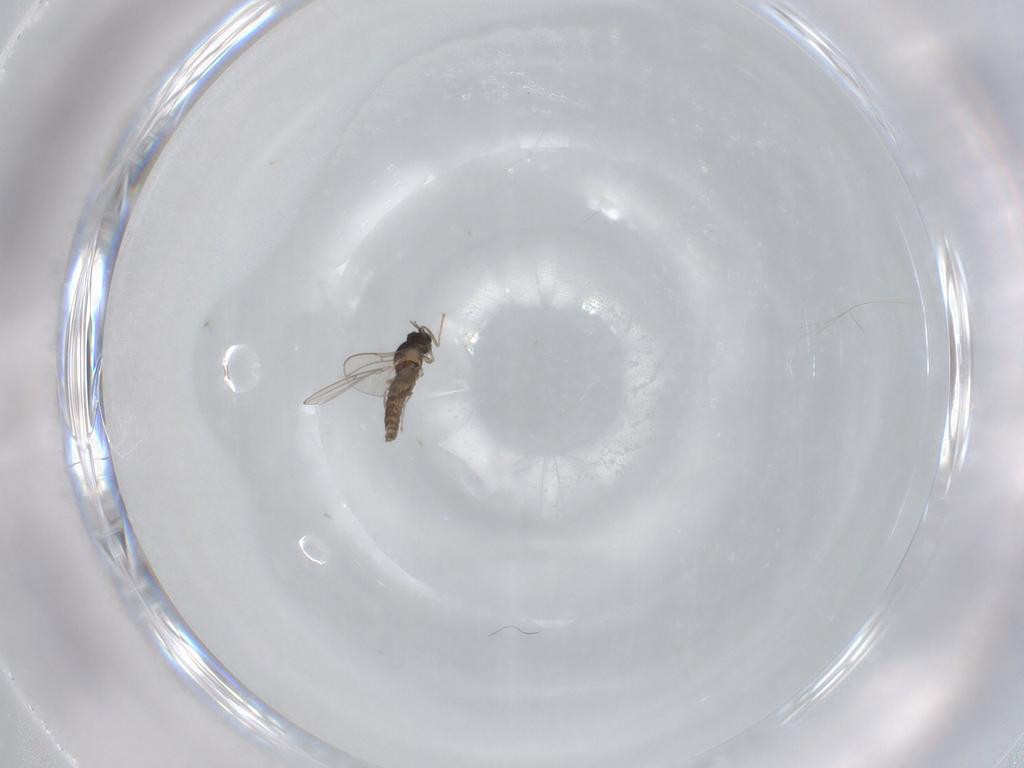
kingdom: Animalia
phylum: Arthropoda
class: Insecta
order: Diptera
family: Cecidomyiidae
